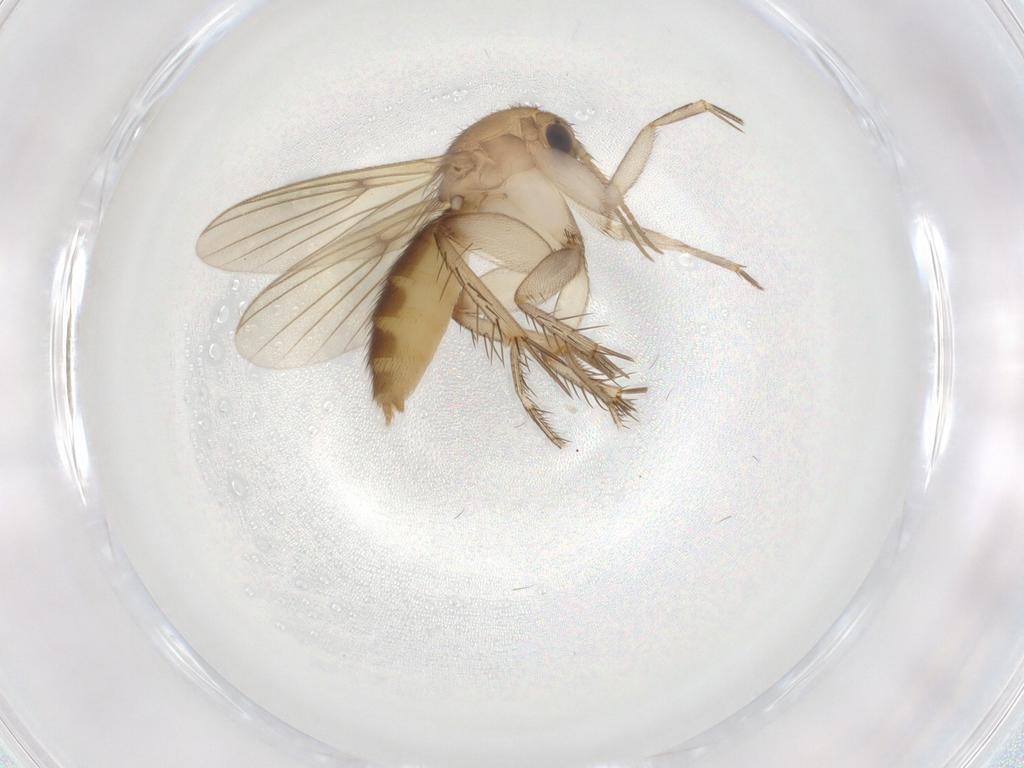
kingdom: Animalia
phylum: Arthropoda
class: Insecta
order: Diptera
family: Mycetophilidae
